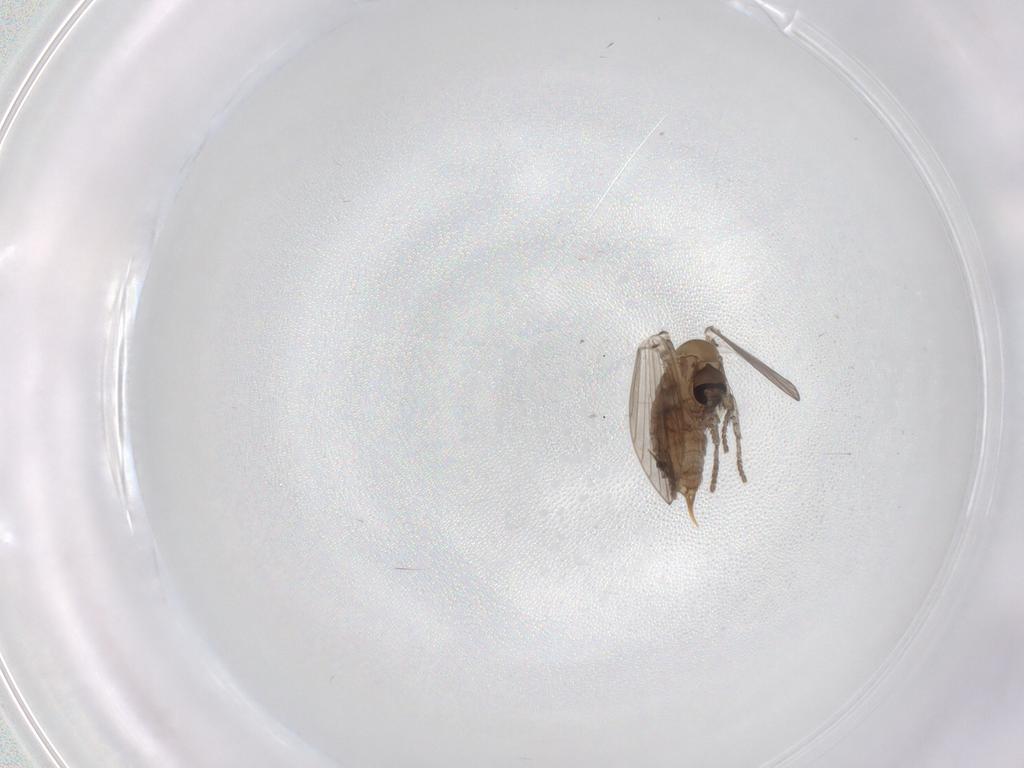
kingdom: Animalia
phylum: Arthropoda
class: Insecta
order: Diptera
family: Psychodidae
